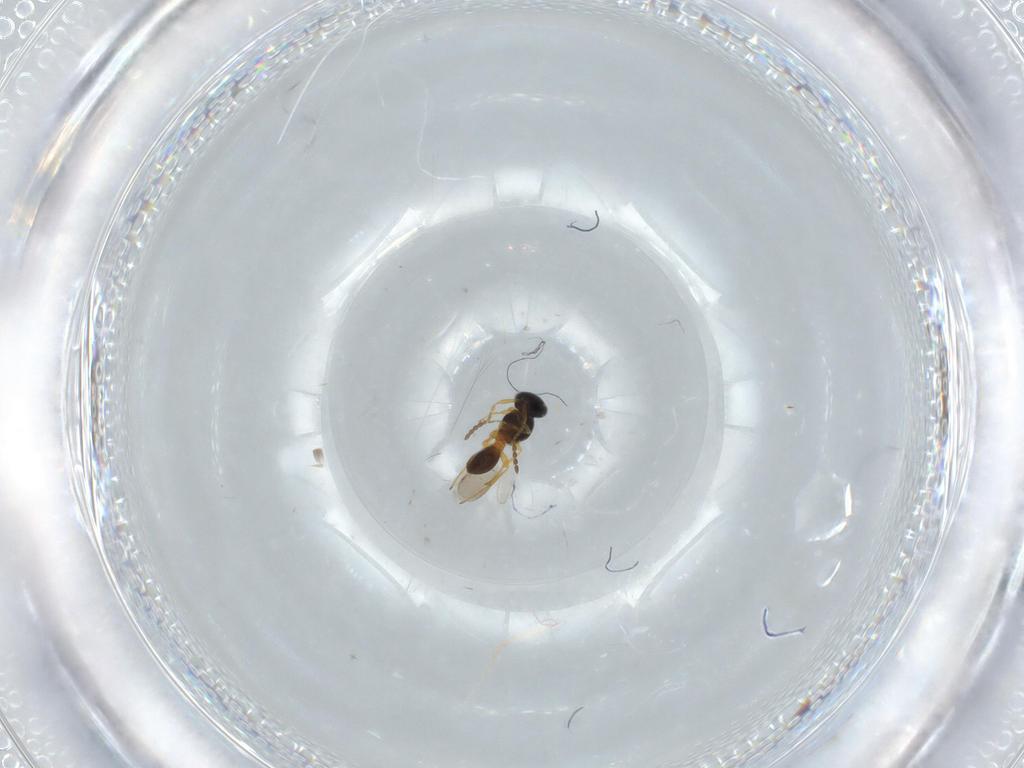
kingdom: Animalia
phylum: Arthropoda
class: Insecta
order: Hymenoptera
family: Platygastridae
